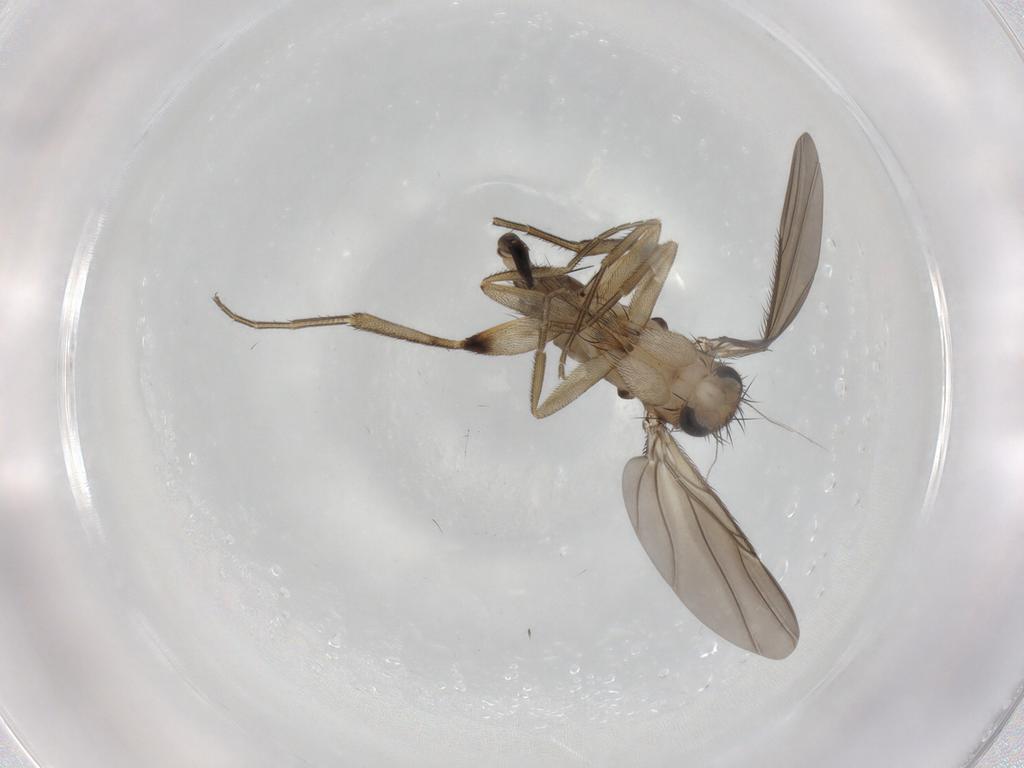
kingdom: Animalia
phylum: Arthropoda
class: Insecta
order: Diptera
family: Phoridae
